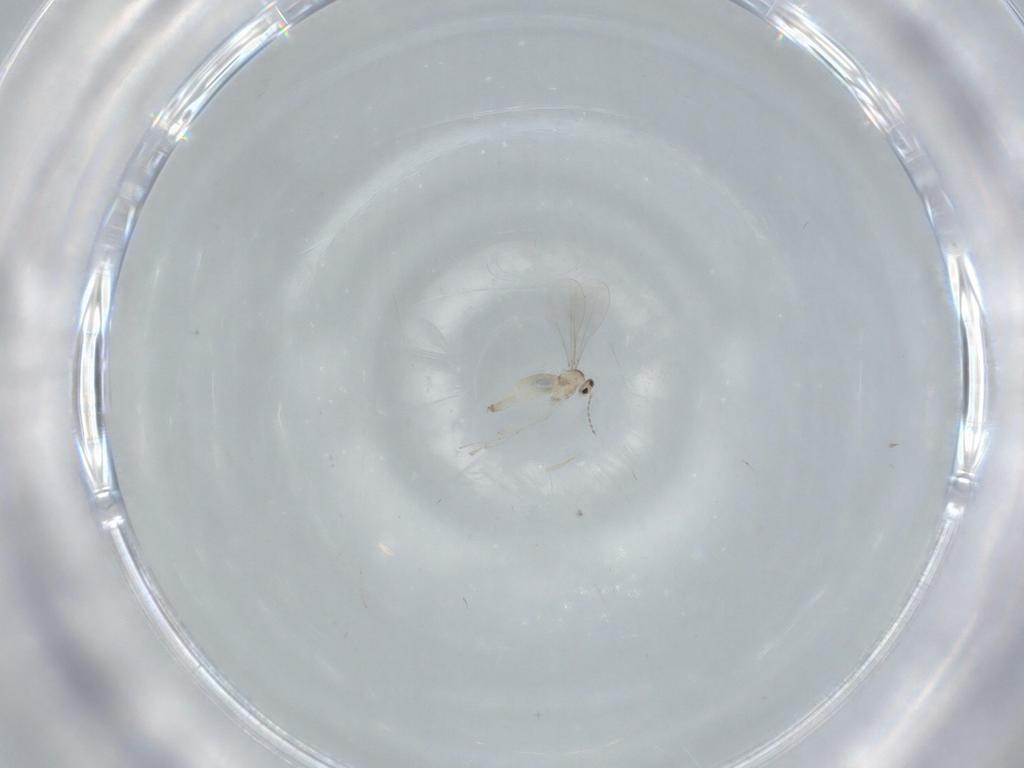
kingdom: Animalia
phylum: Arthropoda
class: Insecta
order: Diptera
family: Cecidomyiidae
